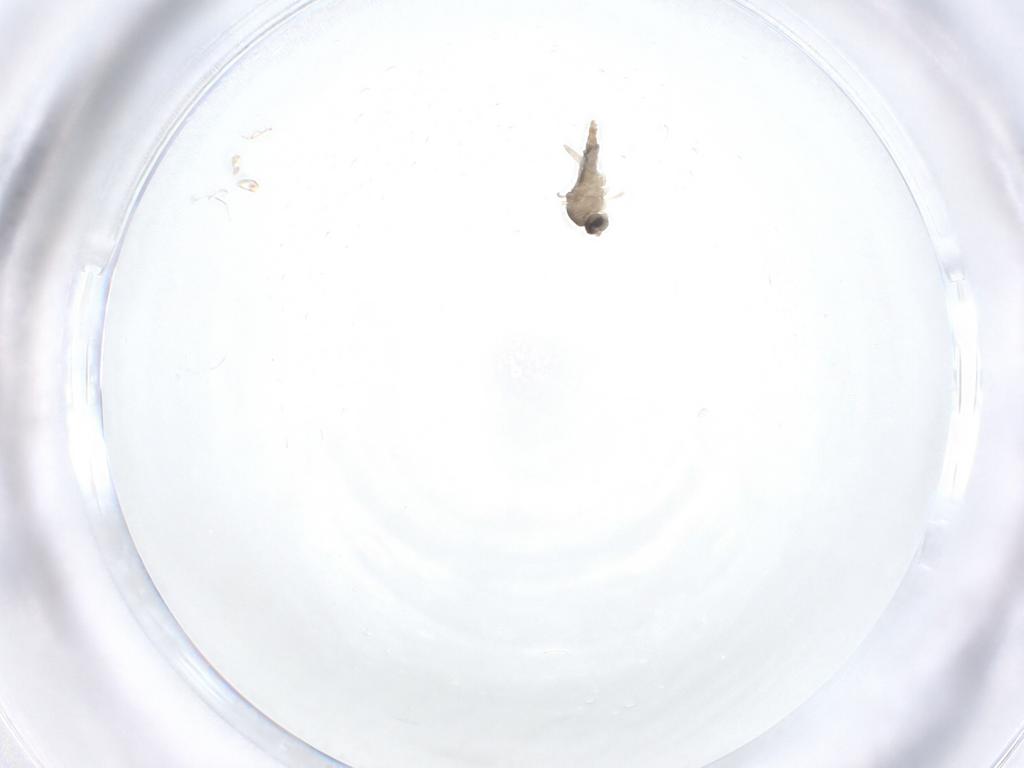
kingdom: Animalia
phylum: Arthropoda
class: Insecta
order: Diptera
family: Cecidomyiidae
